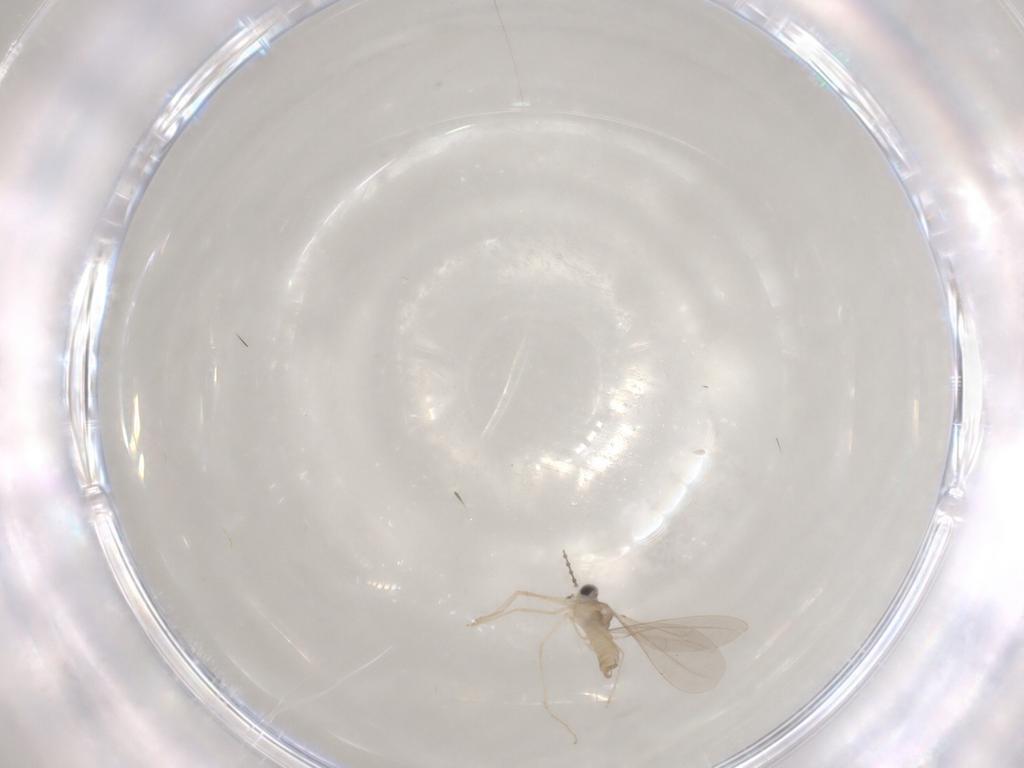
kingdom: Animalia
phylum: Arthropoda
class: Insecta
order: Diptera
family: Cecidomyiidae
